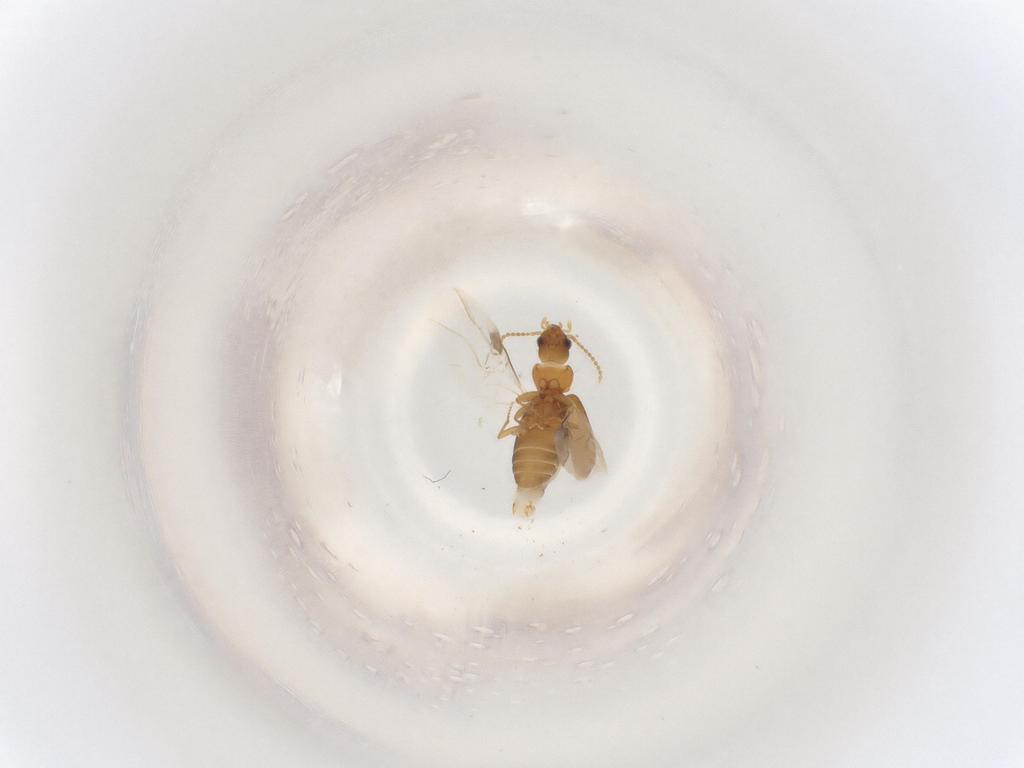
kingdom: Animalia
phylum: Arthropoda
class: Insecta
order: Coleoptera
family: Carabidae
